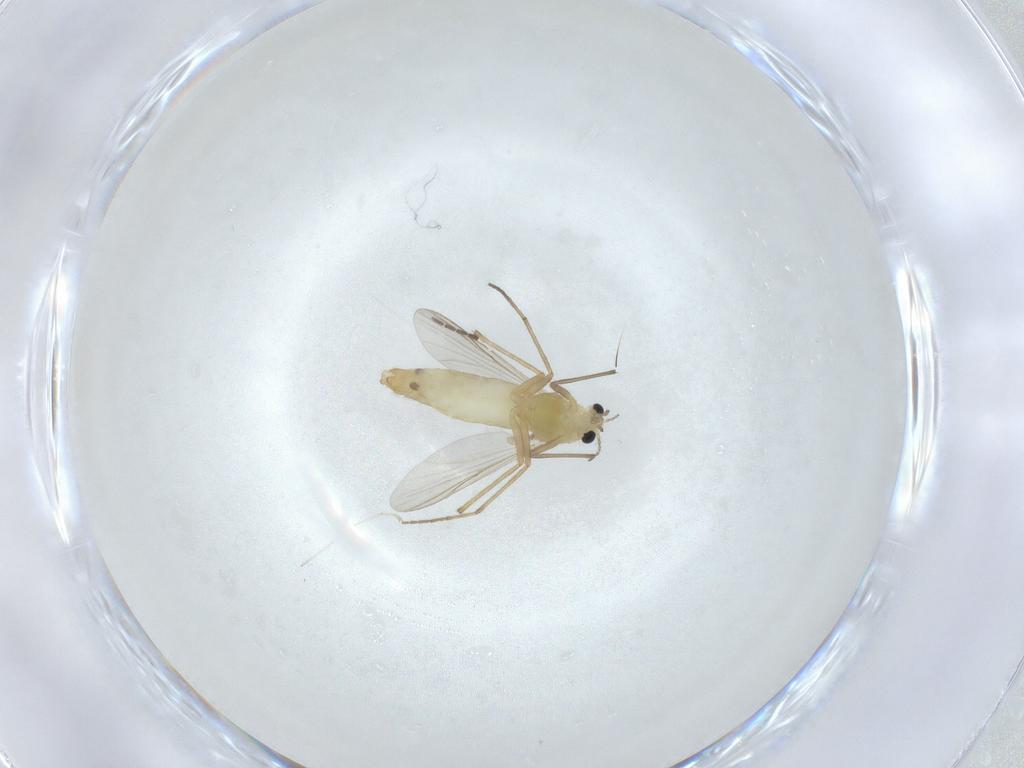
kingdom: Animalia
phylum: Arthropoda
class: Insecta
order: Diptera
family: Chironomidae
